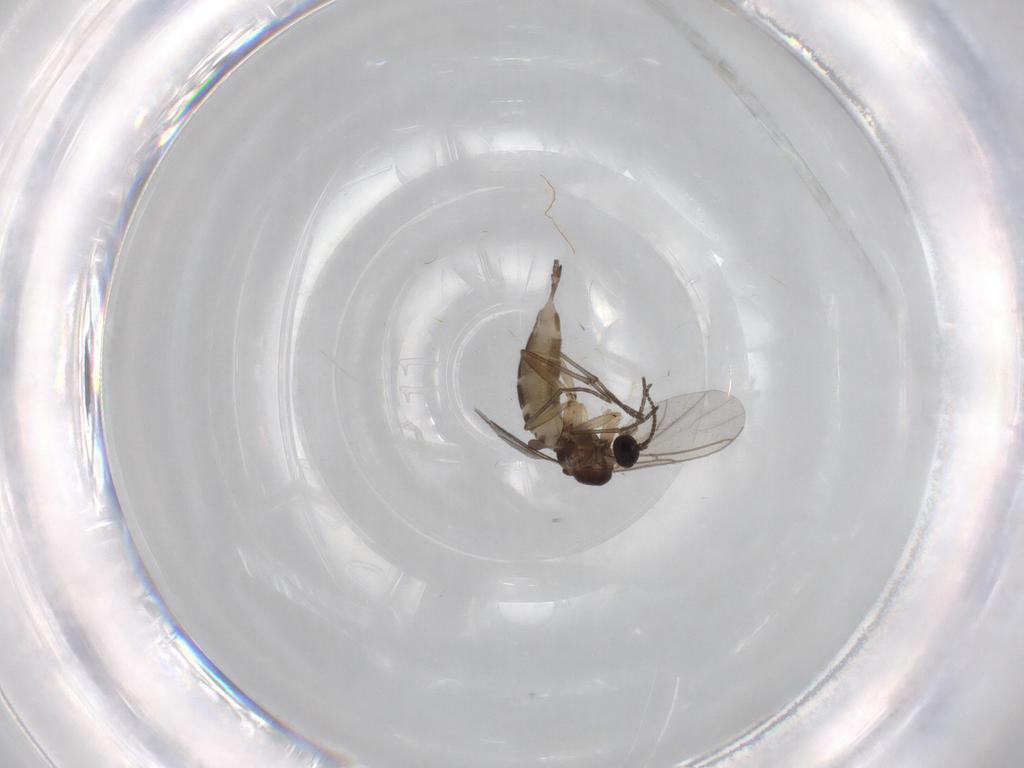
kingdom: Animalia
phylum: Arthropoda
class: Insecta
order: Diptera
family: Sciaridae
